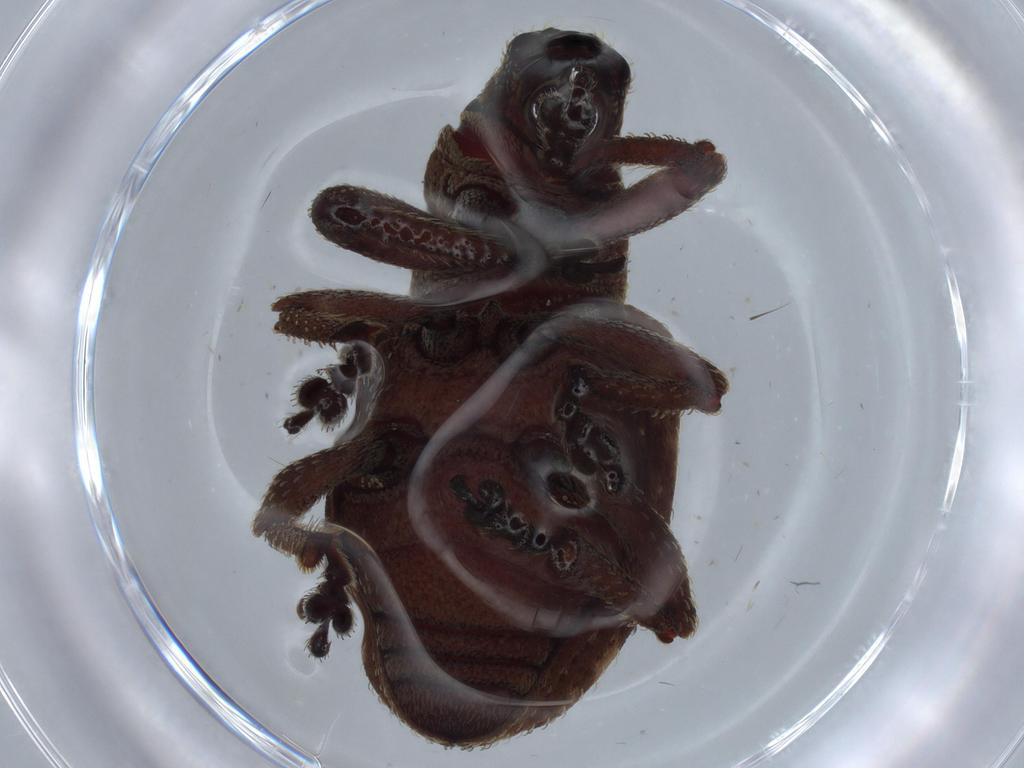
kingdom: Animalia
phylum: Arthropoda
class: Insecta
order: Coleoptera
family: Curculionidae
